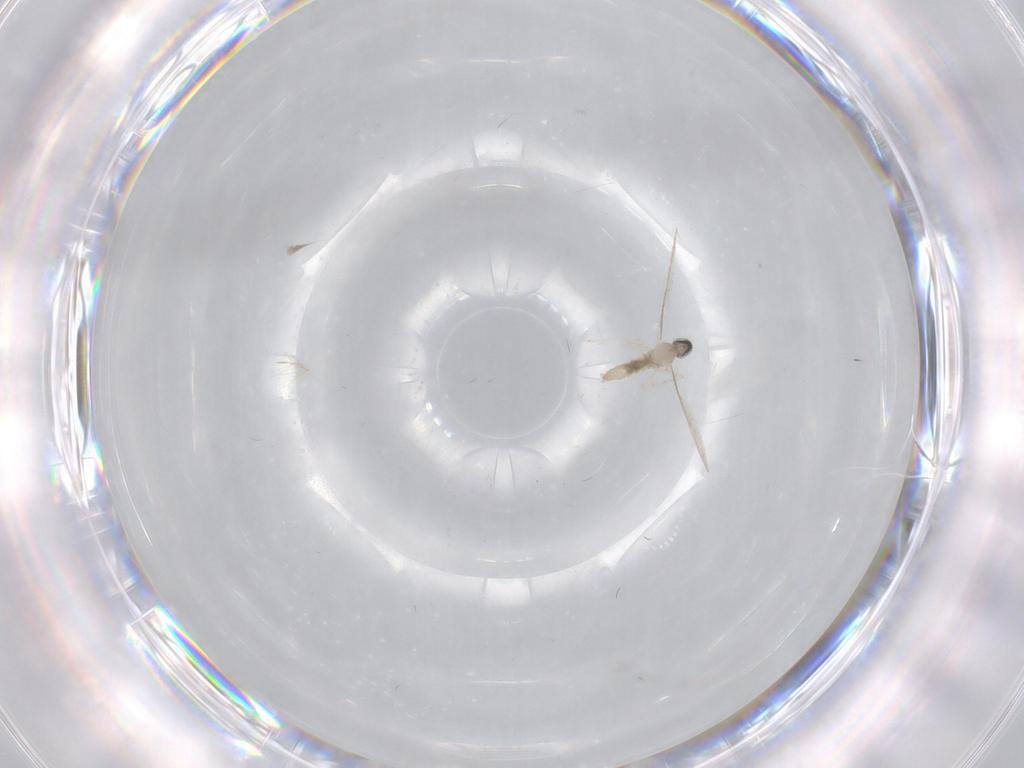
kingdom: Animalia
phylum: Arthropoda
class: Insecta
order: Diptera
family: Cecidomyiidae
